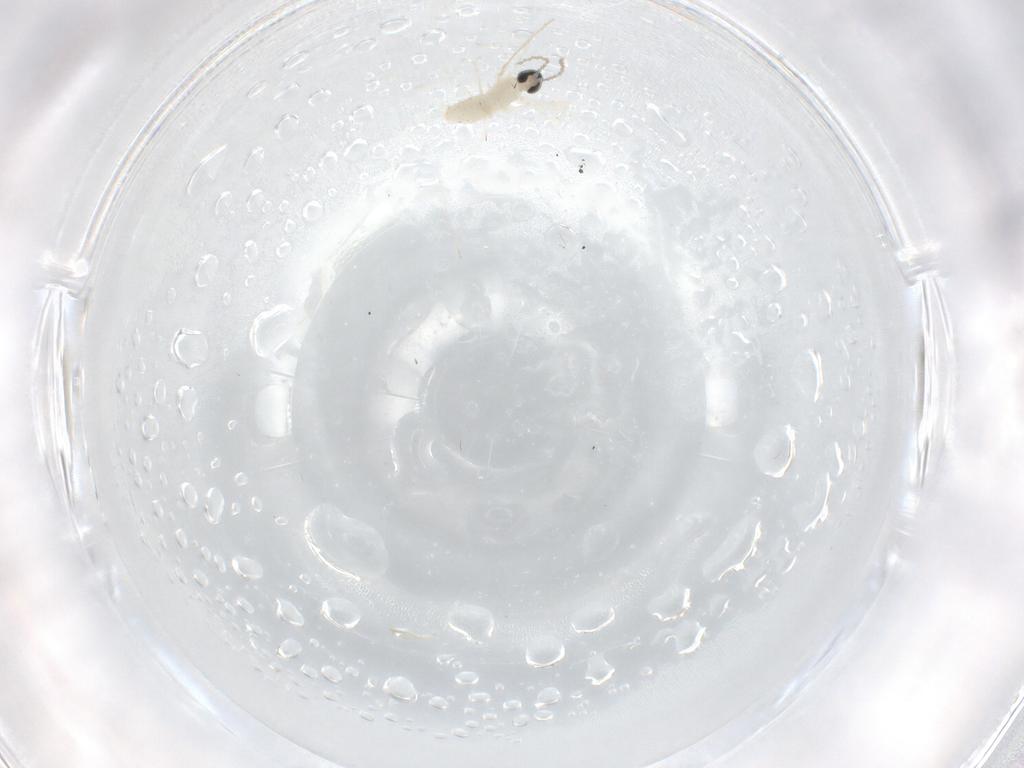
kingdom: Animalia
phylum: Arthropoda
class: Insecta
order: Diptera
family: Cecidomyiidae
